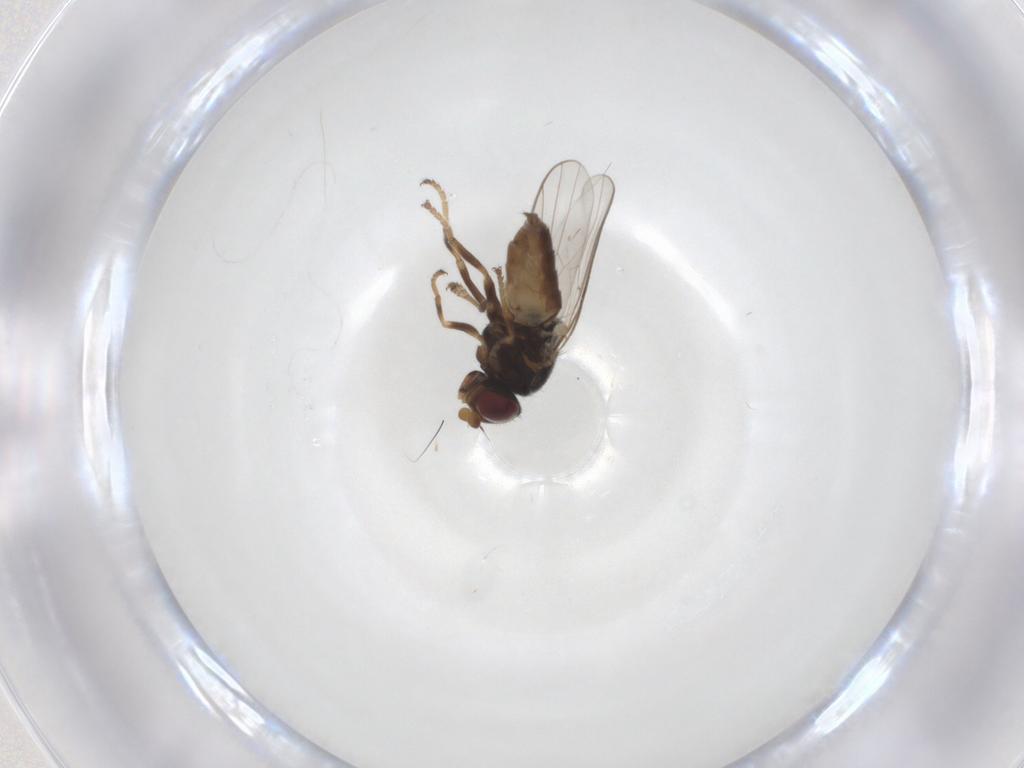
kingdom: Animalia
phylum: Arthropoda
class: Insecta
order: Diptera
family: Chloropidae
